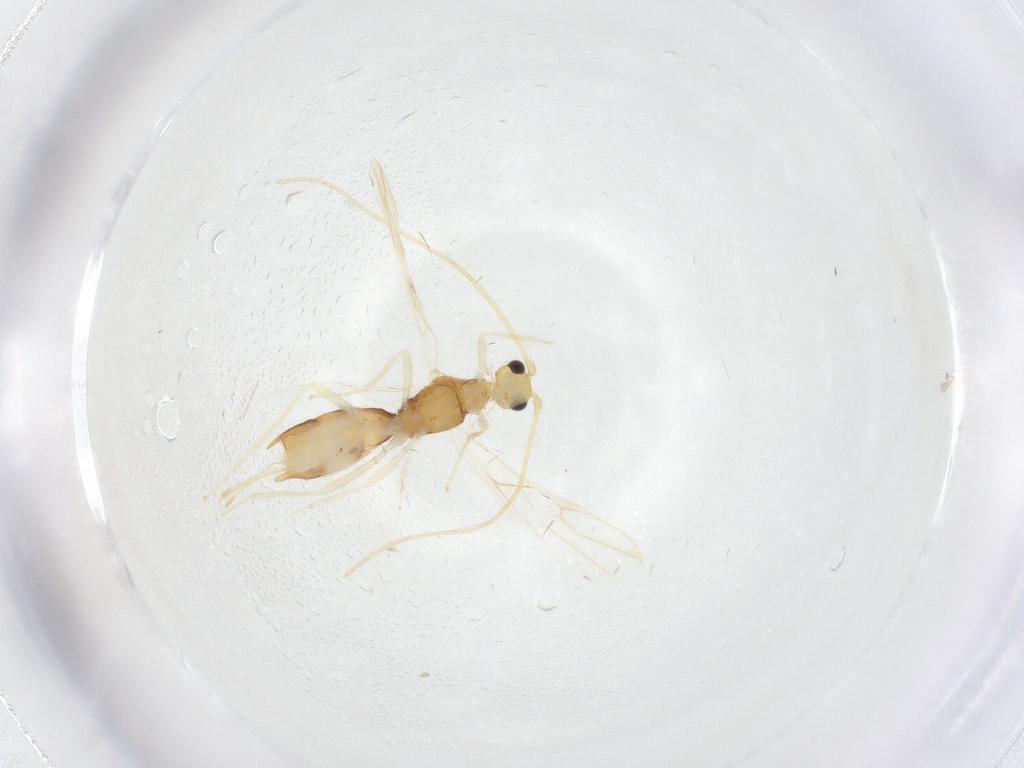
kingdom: Animalia
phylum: Arthropoda
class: Insecta
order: Hymenoptera
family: Braconidae
